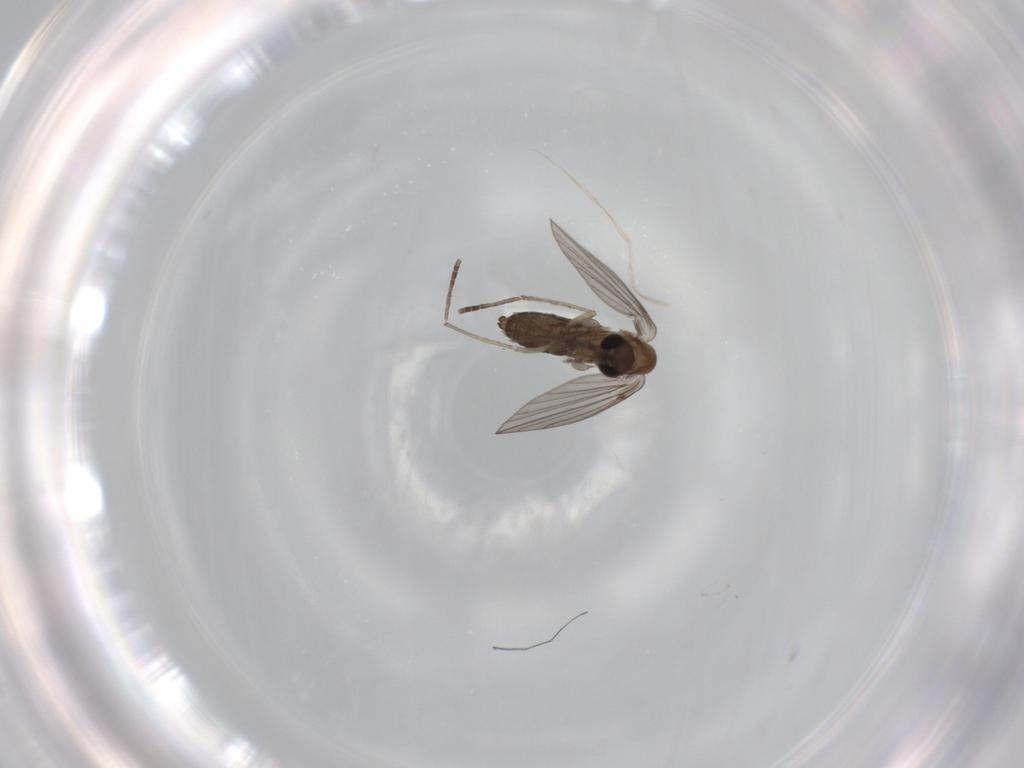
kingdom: Animalia
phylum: Arthropoda
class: Insecta
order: Diptera
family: Psychodidae
